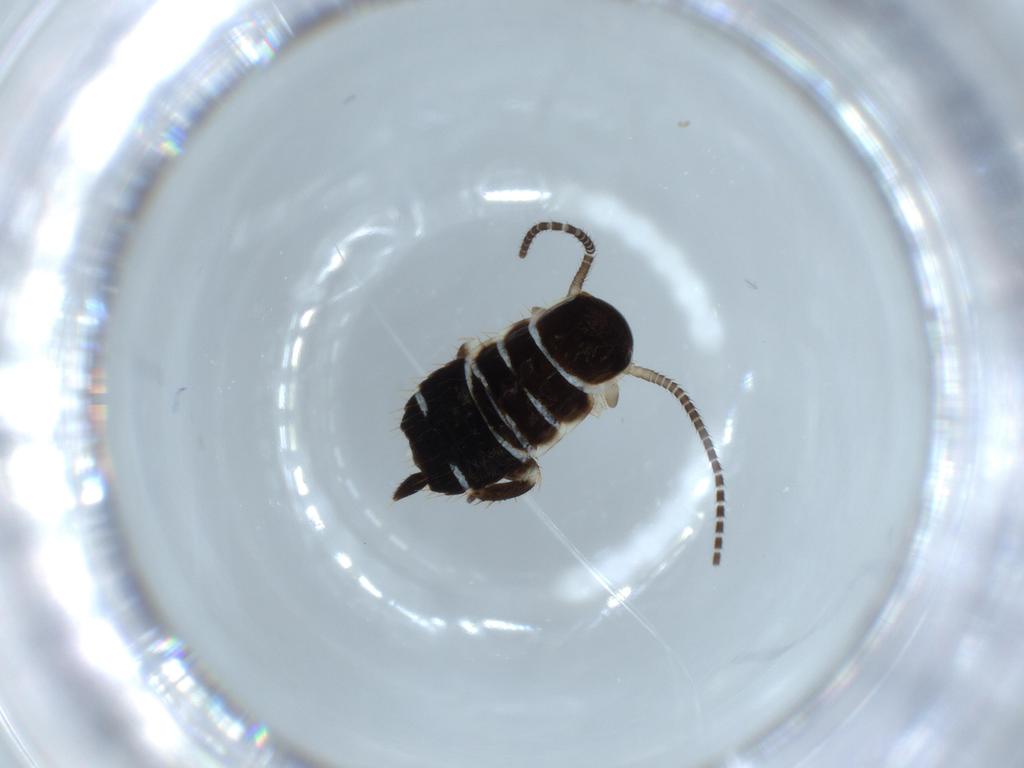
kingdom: Animalia
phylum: Arthropoda
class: Insecta
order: Blattodea
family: Ectobiidae
